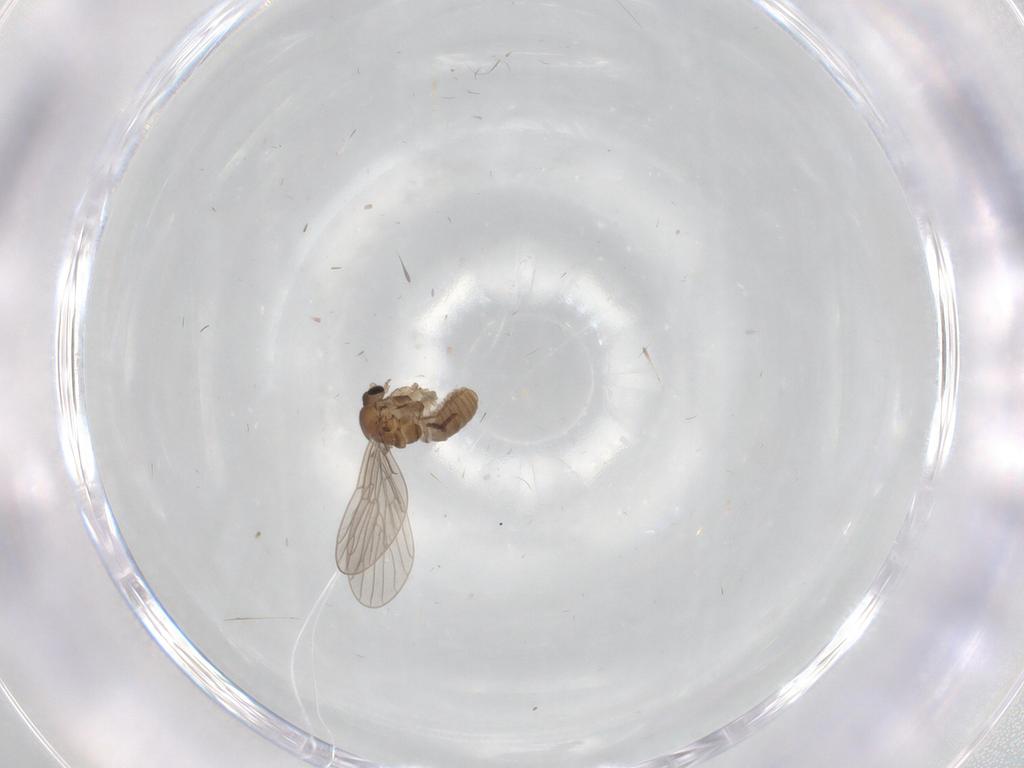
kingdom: Animalia
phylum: Arthropoda
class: Insecta
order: Diptera
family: Psychodidae
